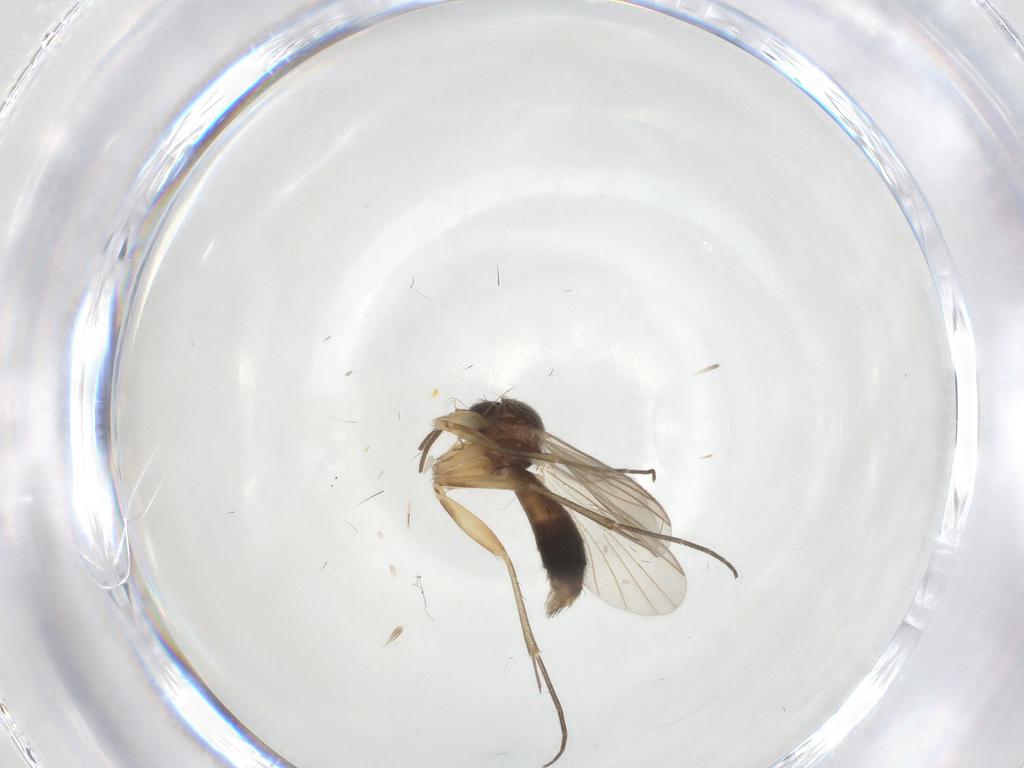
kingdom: Animalia
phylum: Arthropoda
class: Insecta
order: Diptera
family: Mycetophilidae
